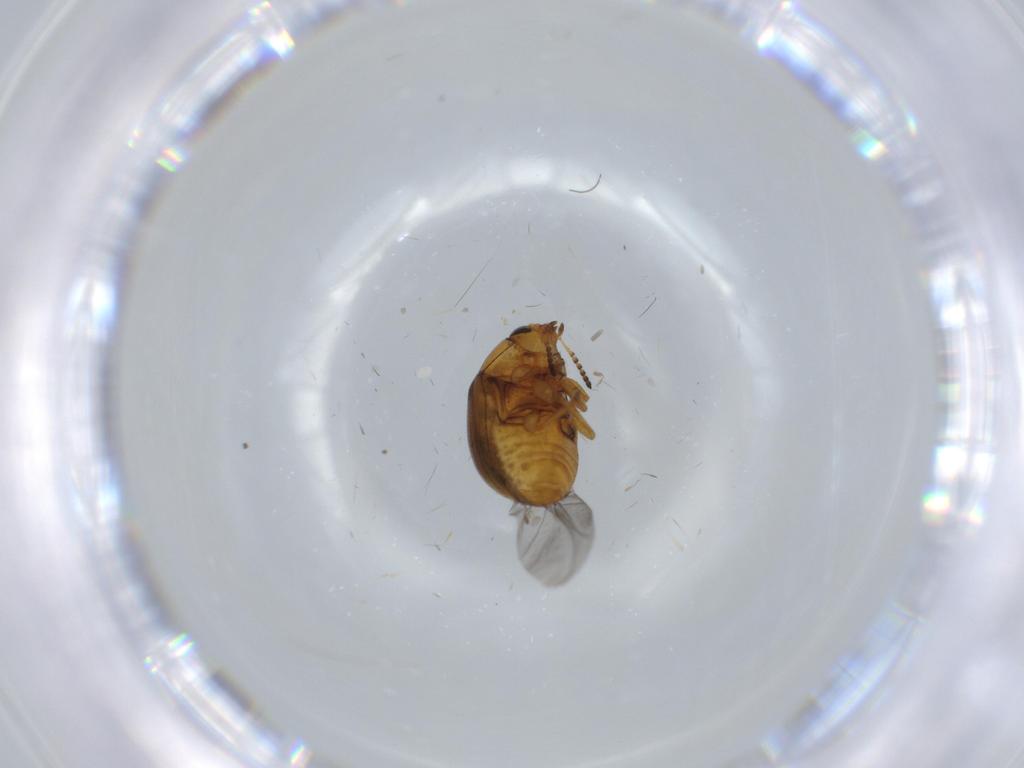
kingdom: Animalia
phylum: Arthropoda
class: Insecta
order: Coleoptera
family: Chrysomelidae
